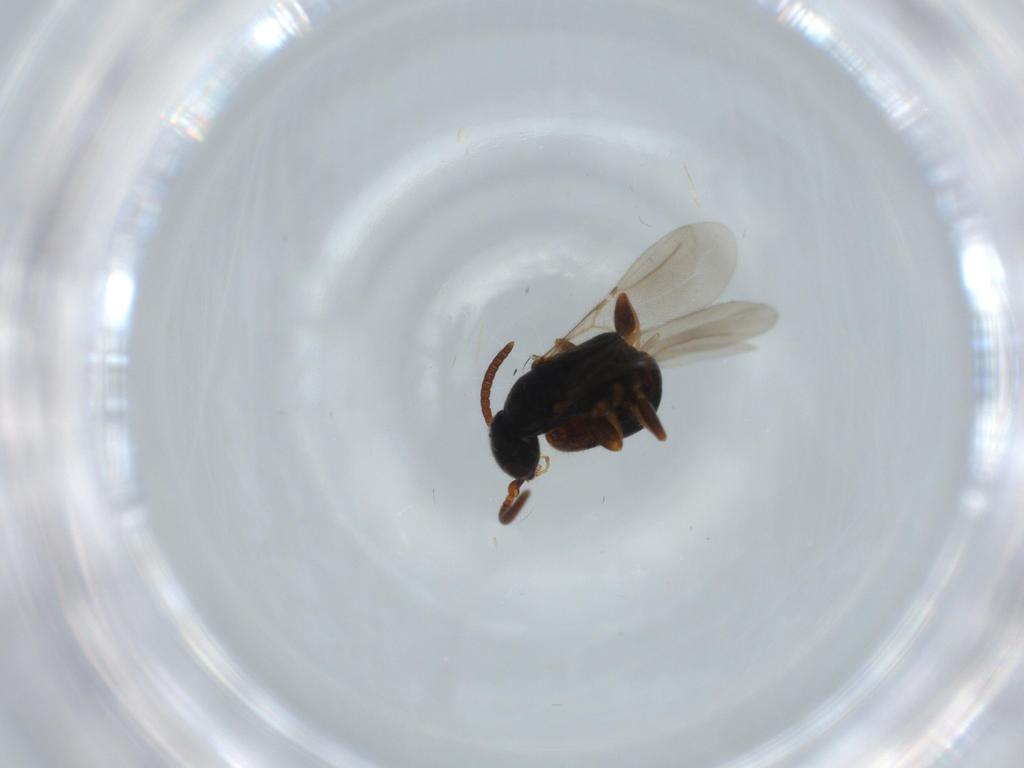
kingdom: Animalia
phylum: Arthropoda
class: Insecta
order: Hymenoptera
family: Bethylidae
